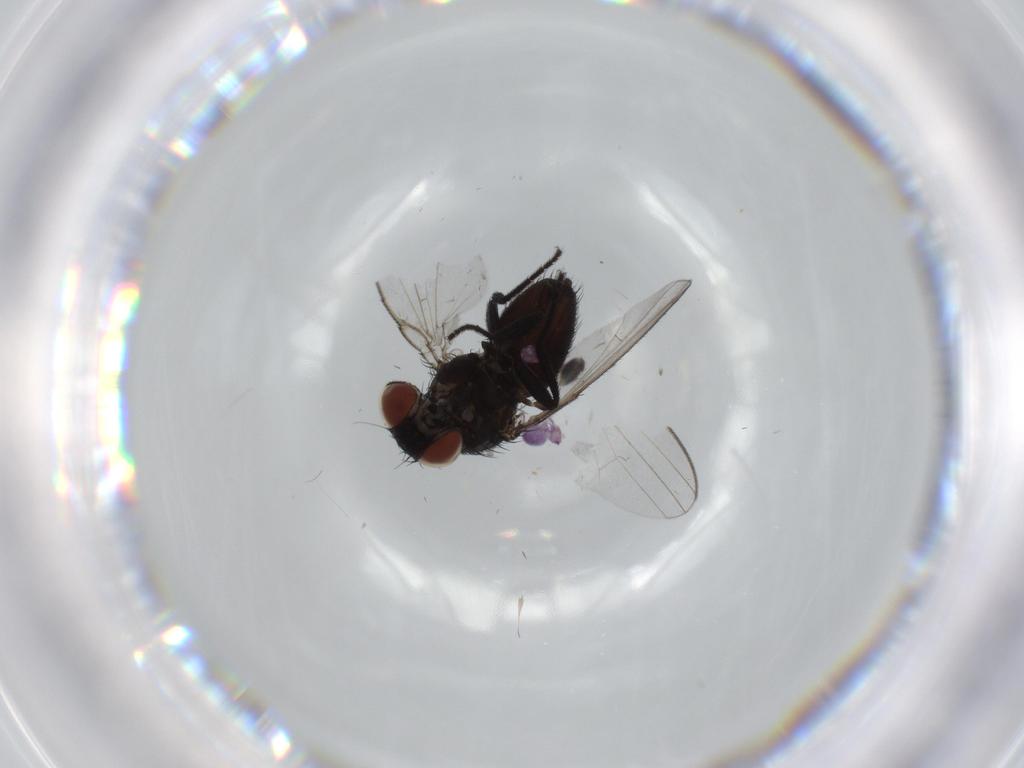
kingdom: Animalia
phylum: Arthropoda
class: Insecta
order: Diptera
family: Milichiidae
